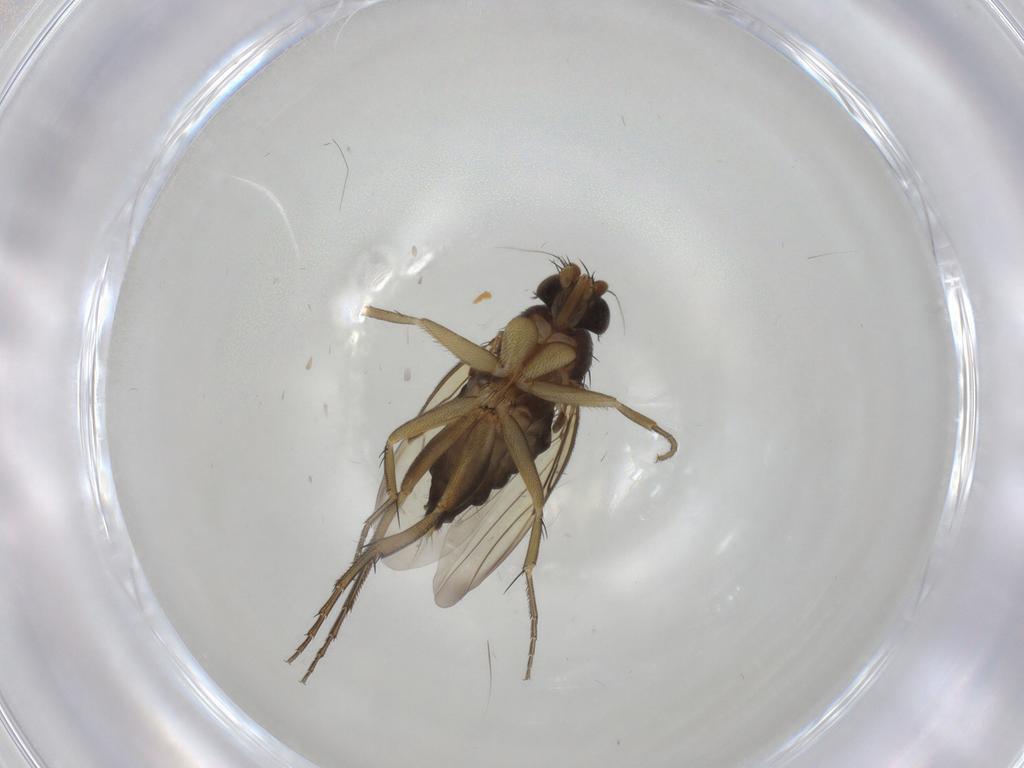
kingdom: Animalia
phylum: Arthropoda
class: Insecta
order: Diptera
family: Phoridae
